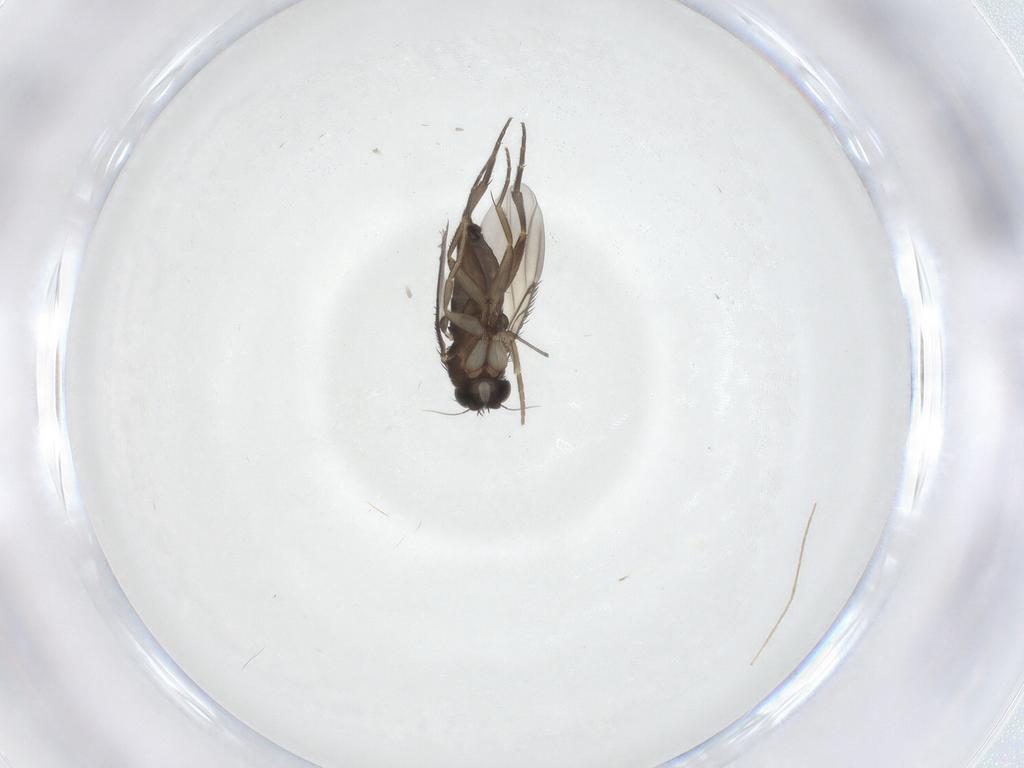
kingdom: Animalia
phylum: Arthropoda
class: Insecta
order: Diptera
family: Chironomidae
